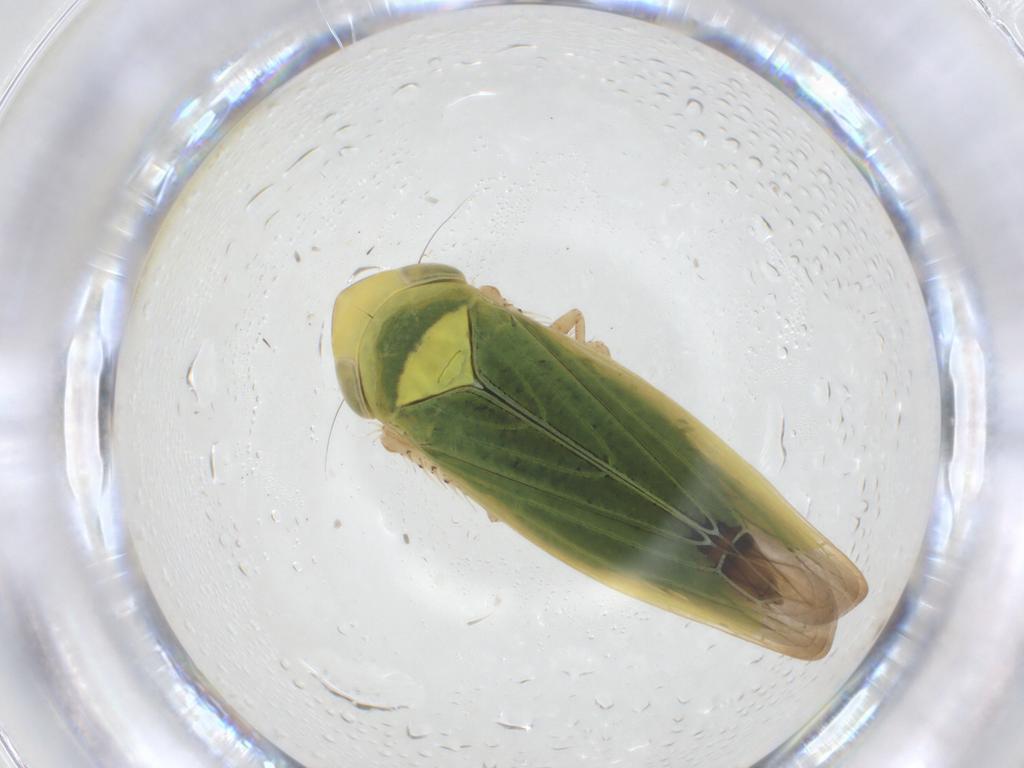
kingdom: Animalia
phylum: Arthropoda
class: Insecta
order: Hemiptera
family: Cicadellidae
